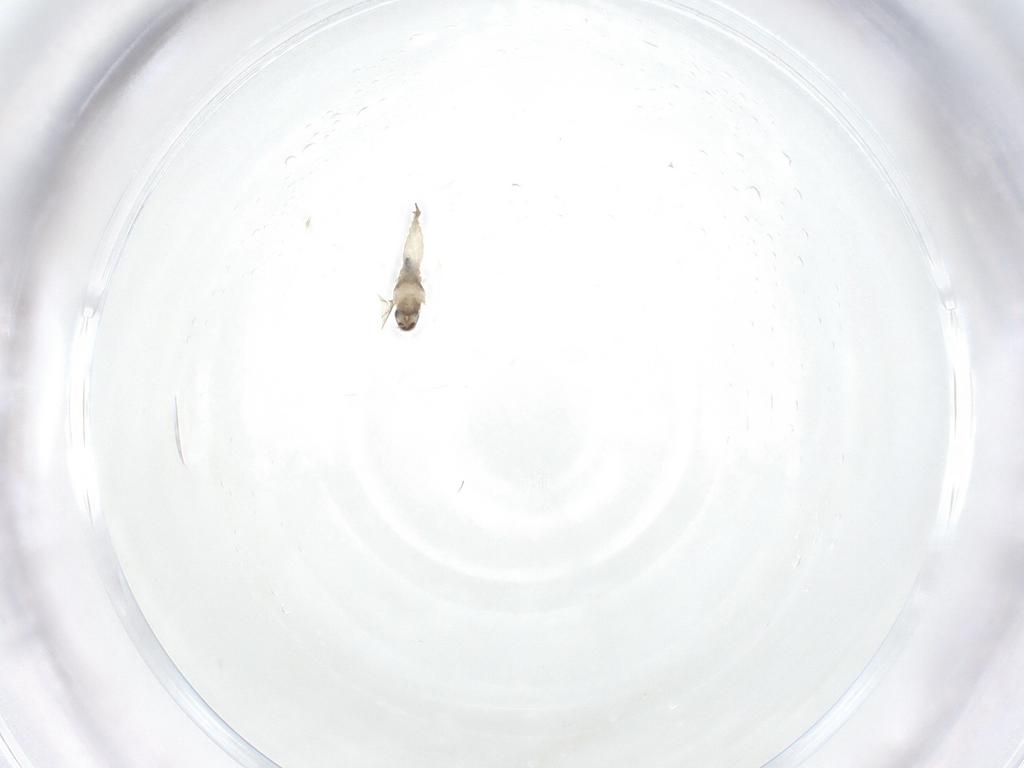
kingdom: Animalia
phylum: Arthropoda
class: Insecta
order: Diptera
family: Cecidomyiidae
